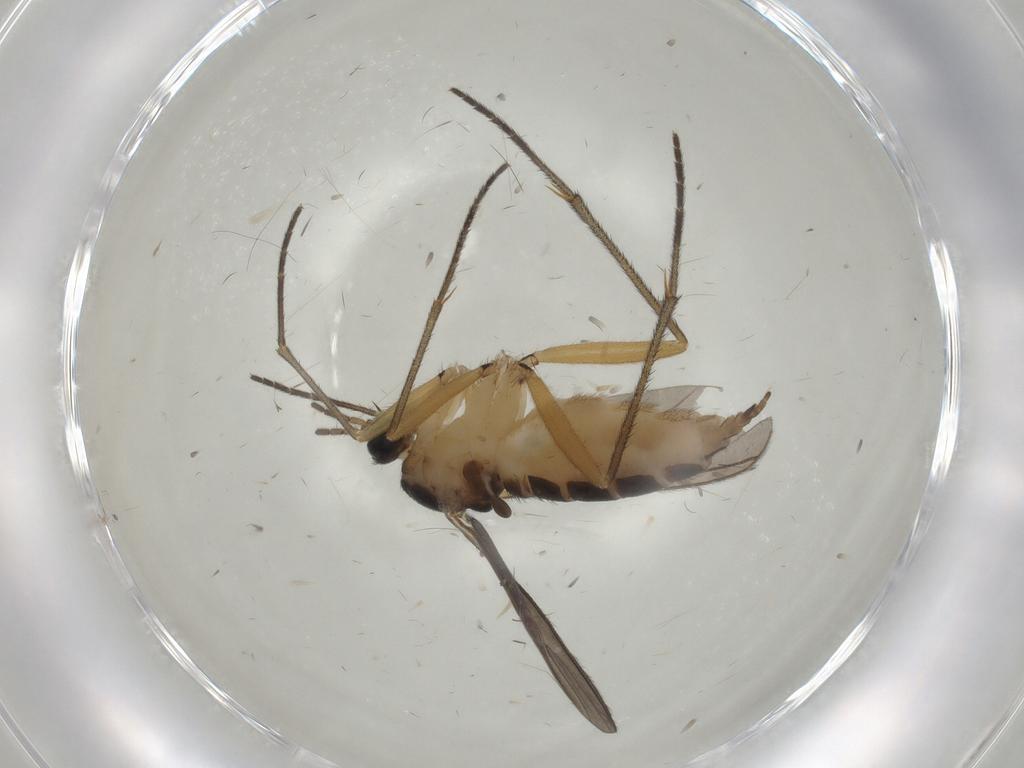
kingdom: Animalia
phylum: Arthropoda
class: Insecta
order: Diptera
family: Sciaridae
